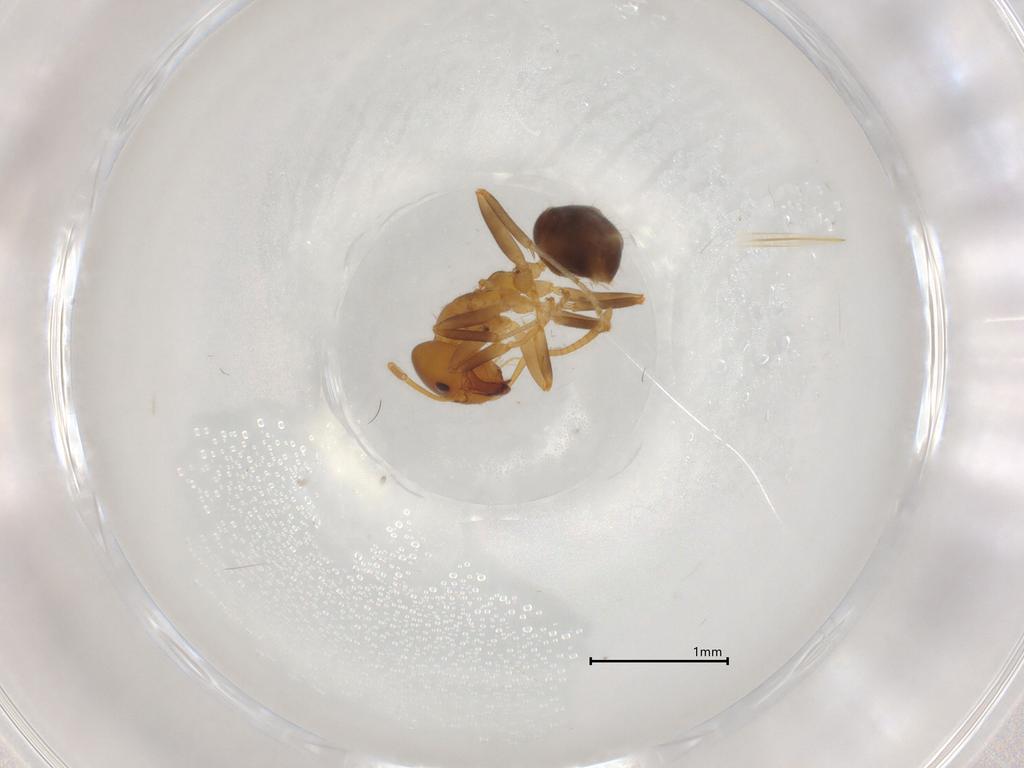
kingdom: Animalia
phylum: Arthropoda
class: Insecta
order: Hymenoptera
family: Formicidae
